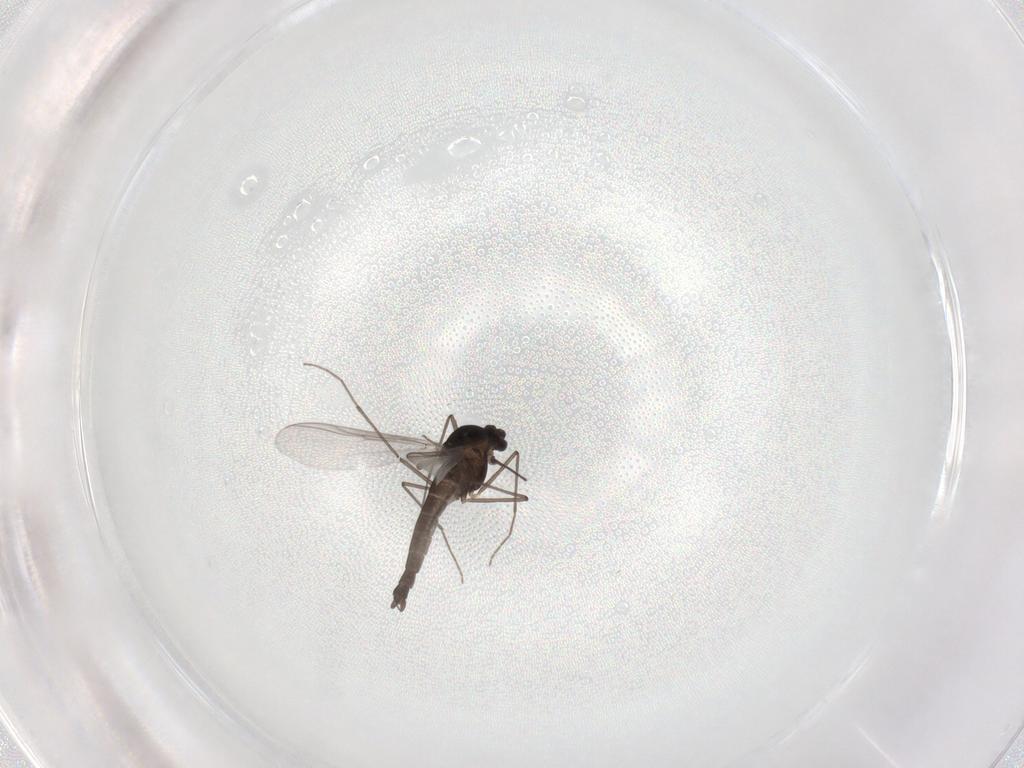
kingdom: Animalia
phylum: Arthropoda
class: Insecta
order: Diptera
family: Chironomidae
